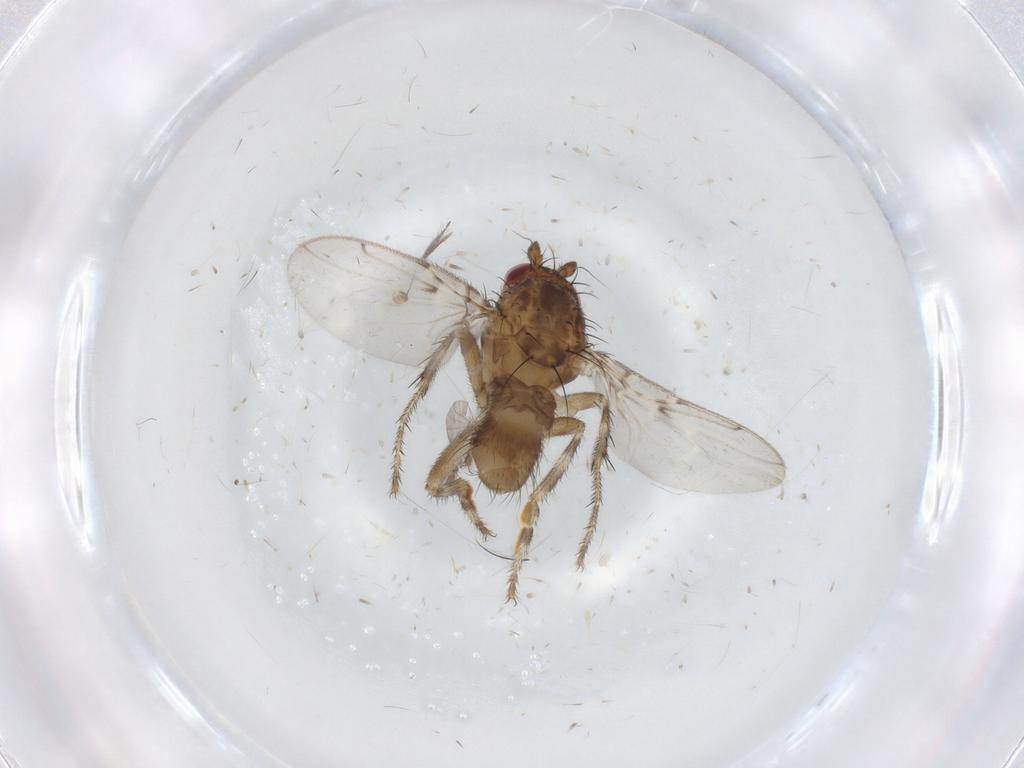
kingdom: Animalia
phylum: Arthropoda
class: Insecta
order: Diptera
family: Sphaeroceridae
